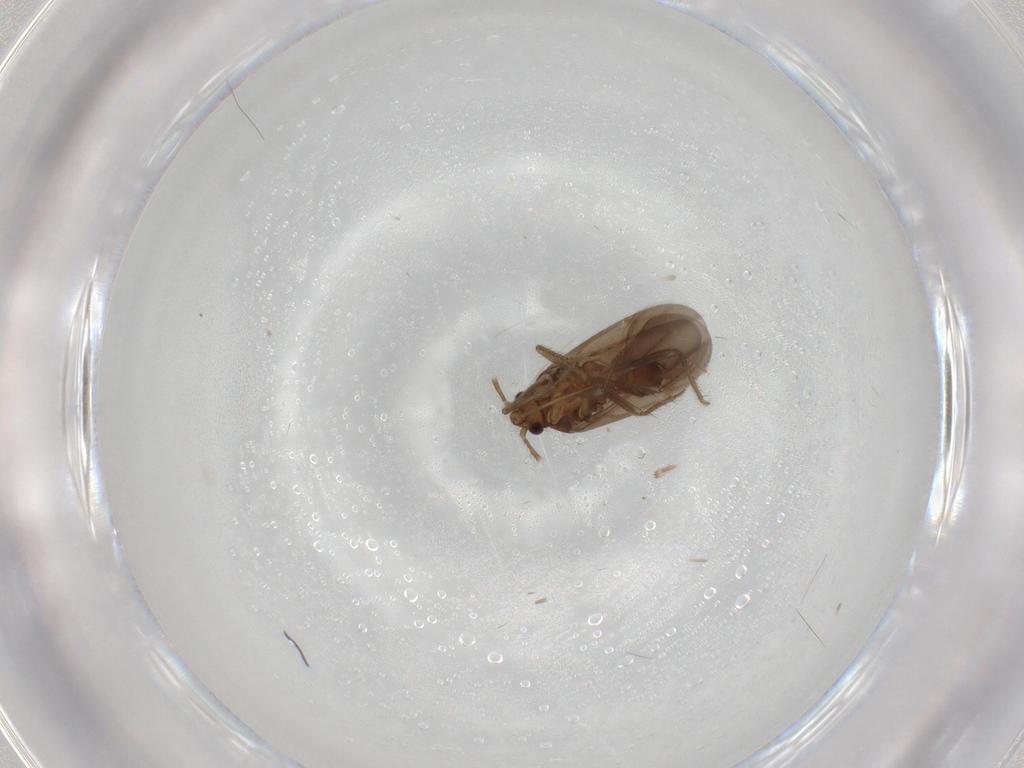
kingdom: Animalia
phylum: Arthropoda
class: Insecta
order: Hemiptera
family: Ceratocombidae
